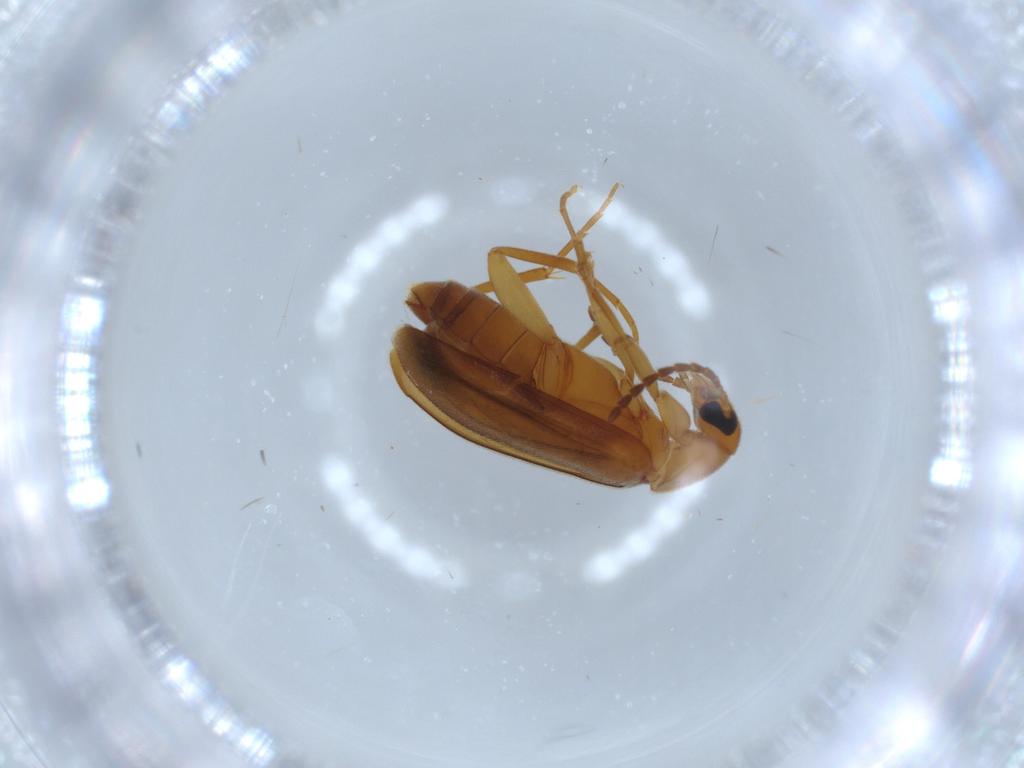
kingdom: Animalia
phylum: Arthropoda
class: Insecta
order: Coleoptera
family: Scraptiidae
